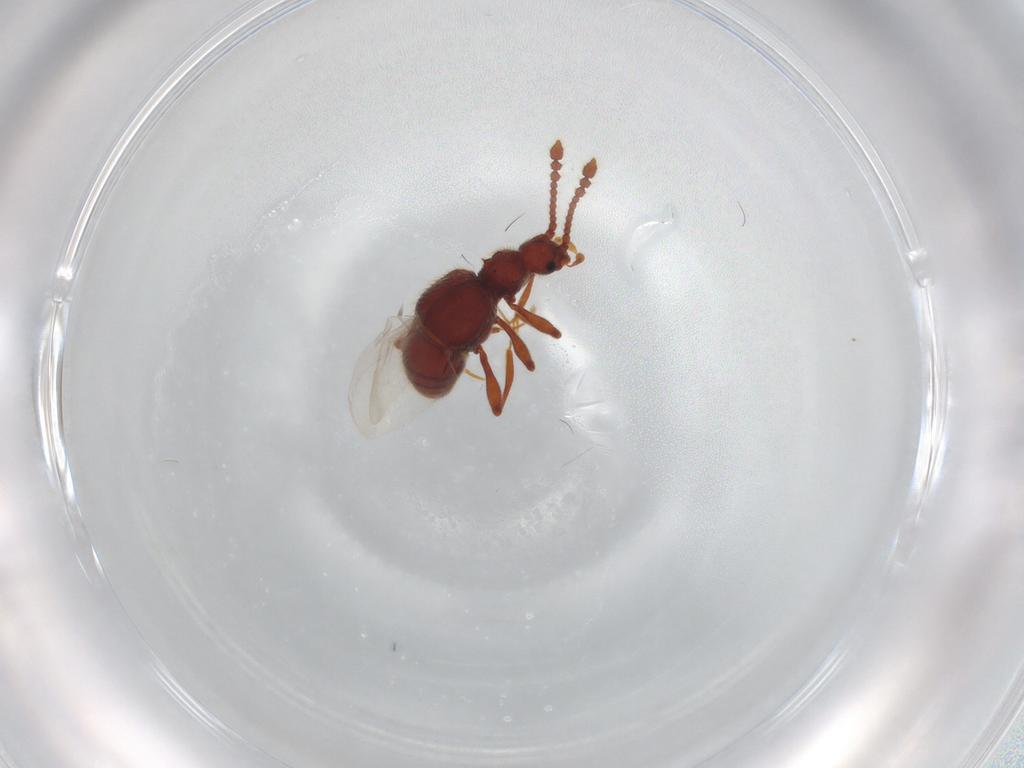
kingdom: Animalia
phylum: Arthropoda
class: Insecta
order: Coleoptera
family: Staphylinidae
